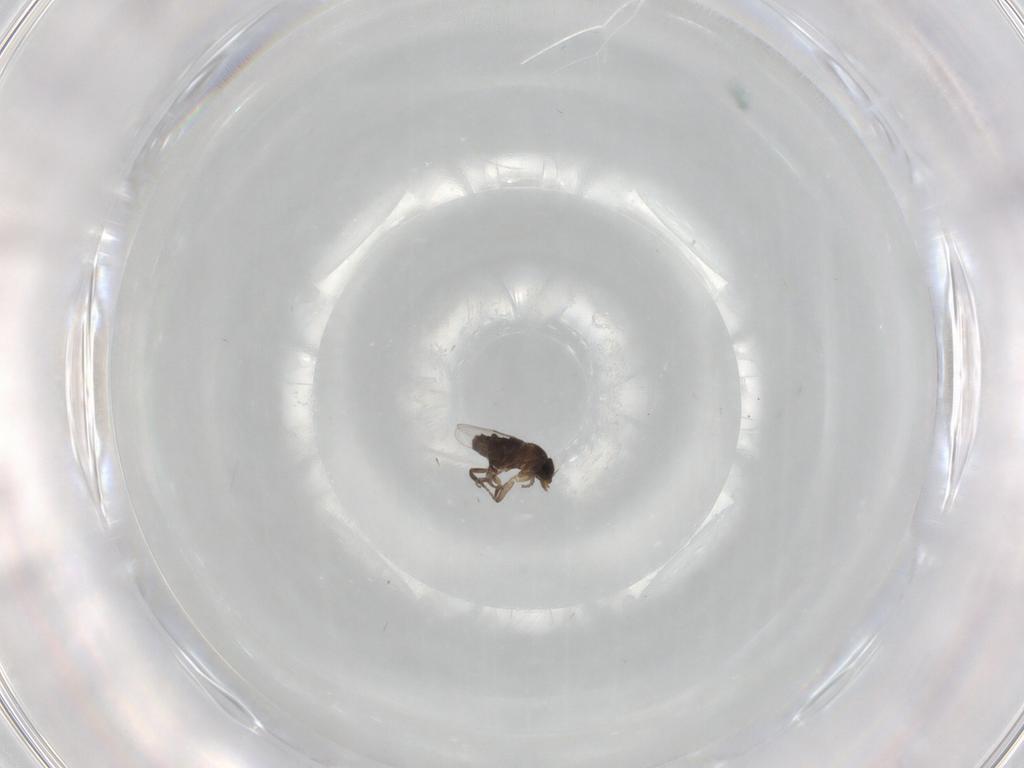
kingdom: Animalia
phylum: Arthropoda
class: Insecta
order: Diptera
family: Phoridae
